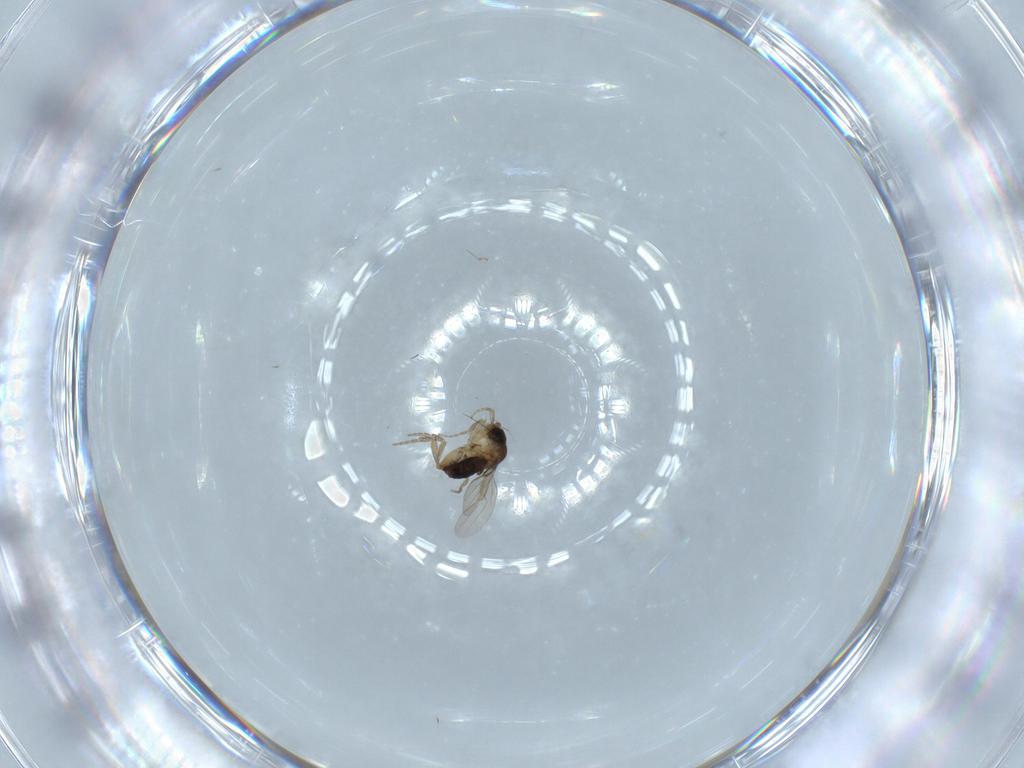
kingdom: Animalia
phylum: Arthropoda
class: Insecta
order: Diptera
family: Phoridae
